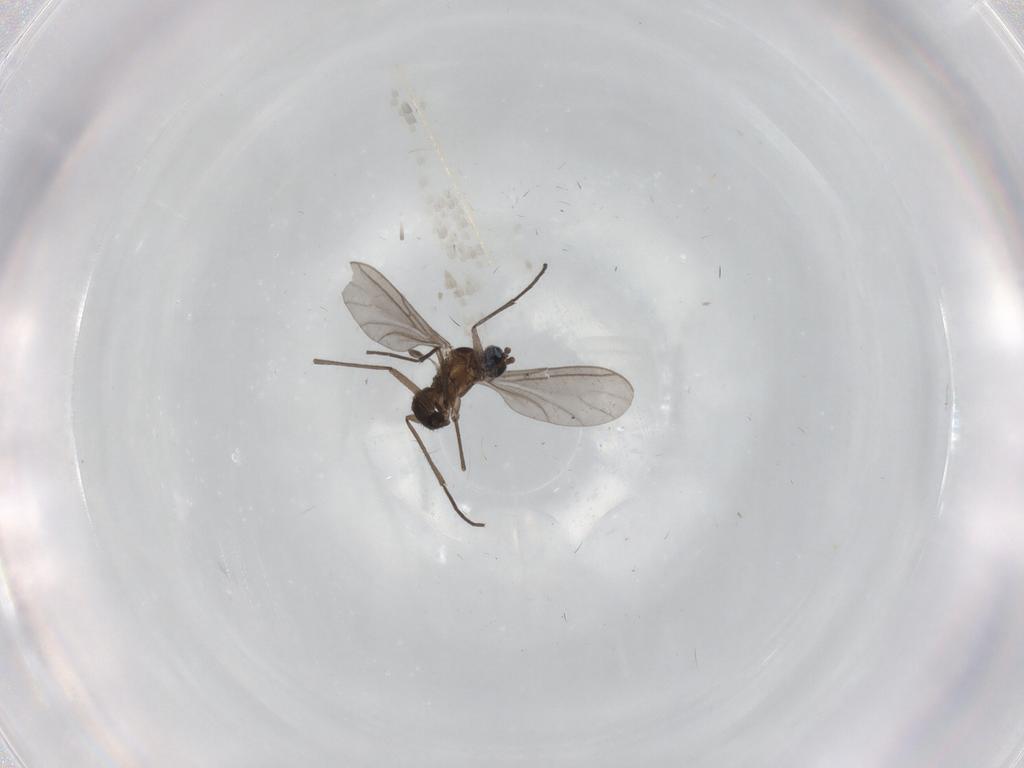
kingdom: Animalia
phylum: Arthropoda
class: Insecta
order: Diptera
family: Sciaridae
